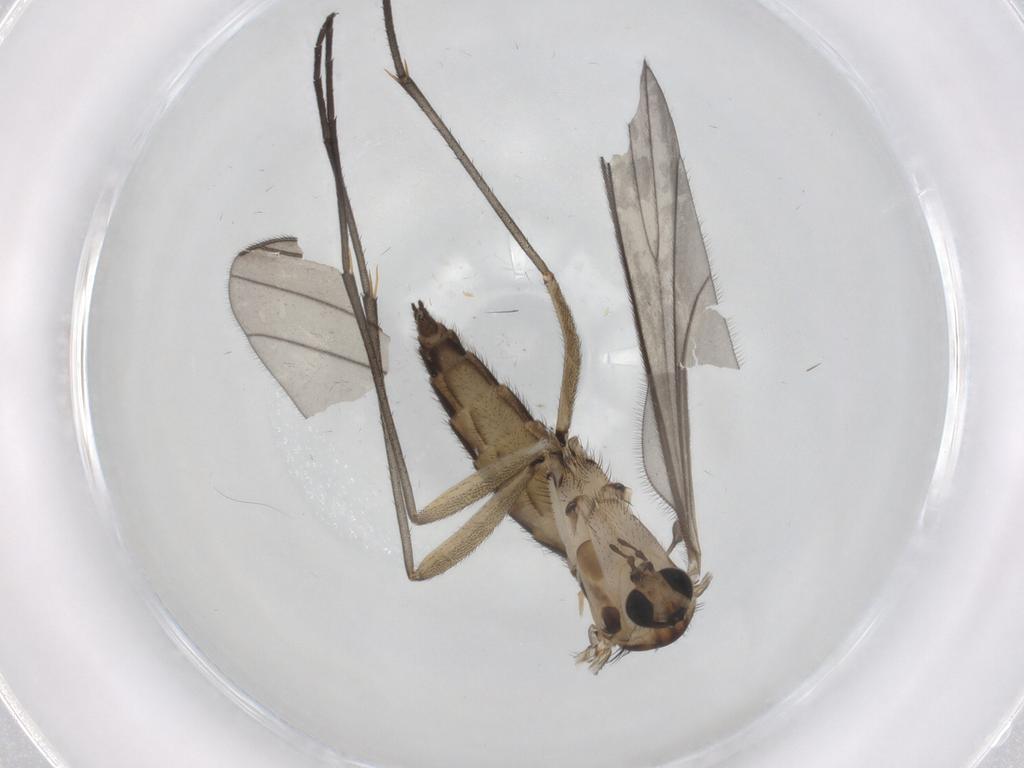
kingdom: Animalia
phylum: Arthropoda
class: Insecta
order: Diptera
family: Sciaridae
